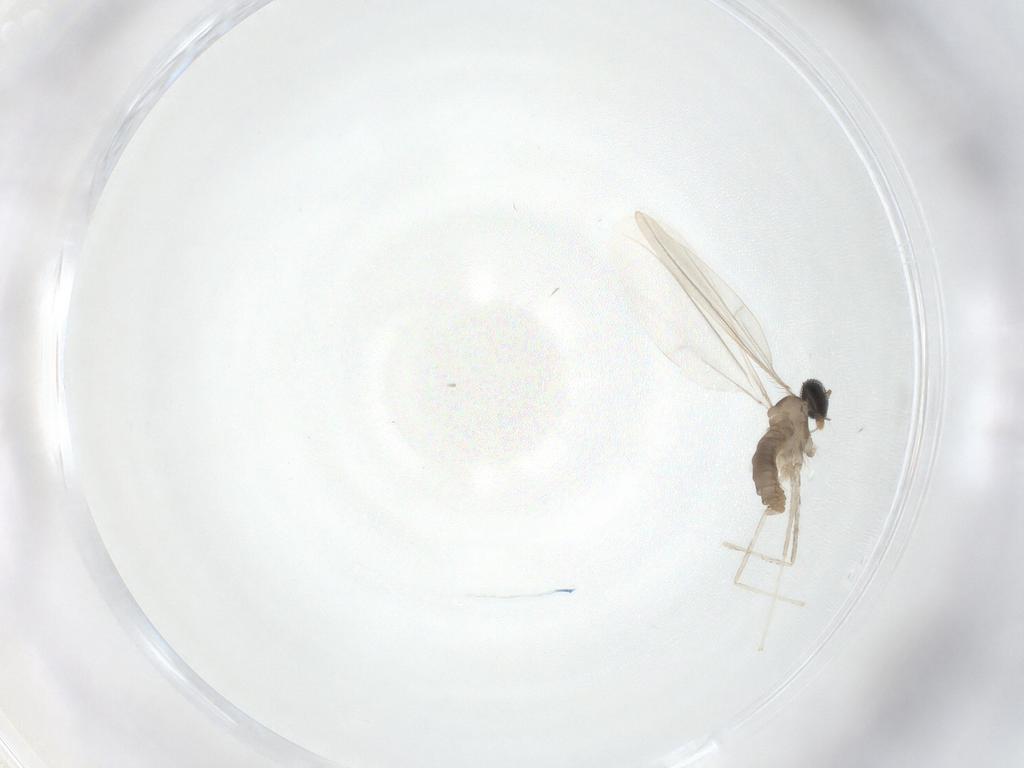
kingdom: Animalia
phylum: Arthropoda
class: Insecta
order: Diptera
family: Cecidomyiidae
